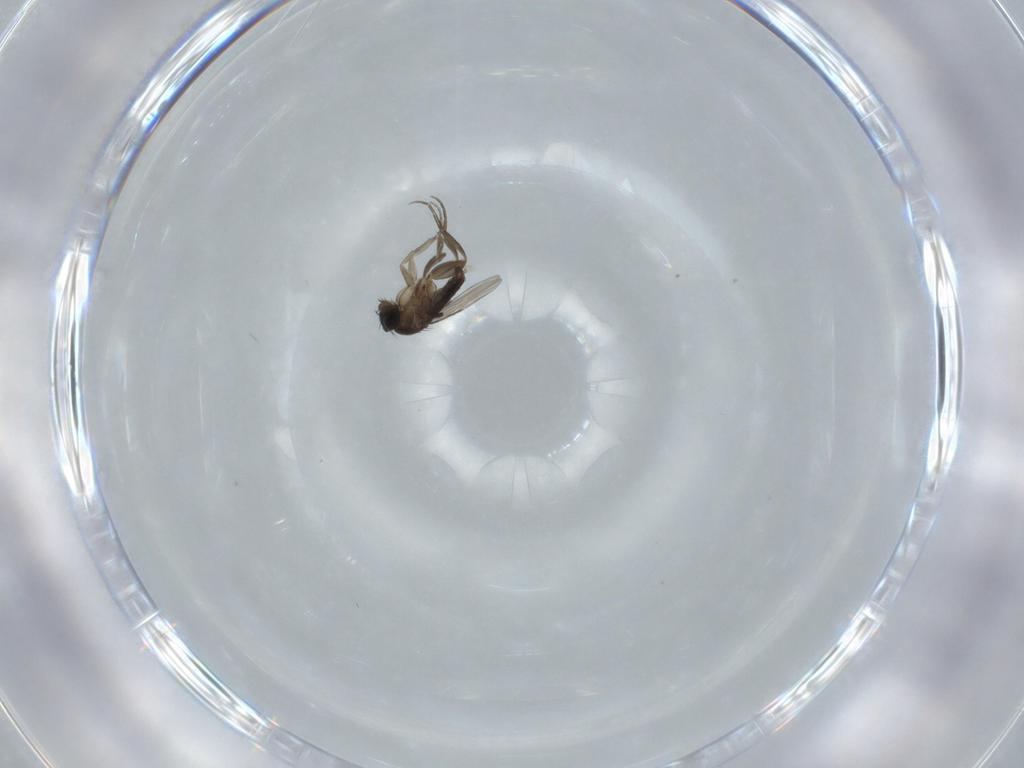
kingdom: Animalia
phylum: Arthropoda
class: Insecta
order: Diptera
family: Phoridae
